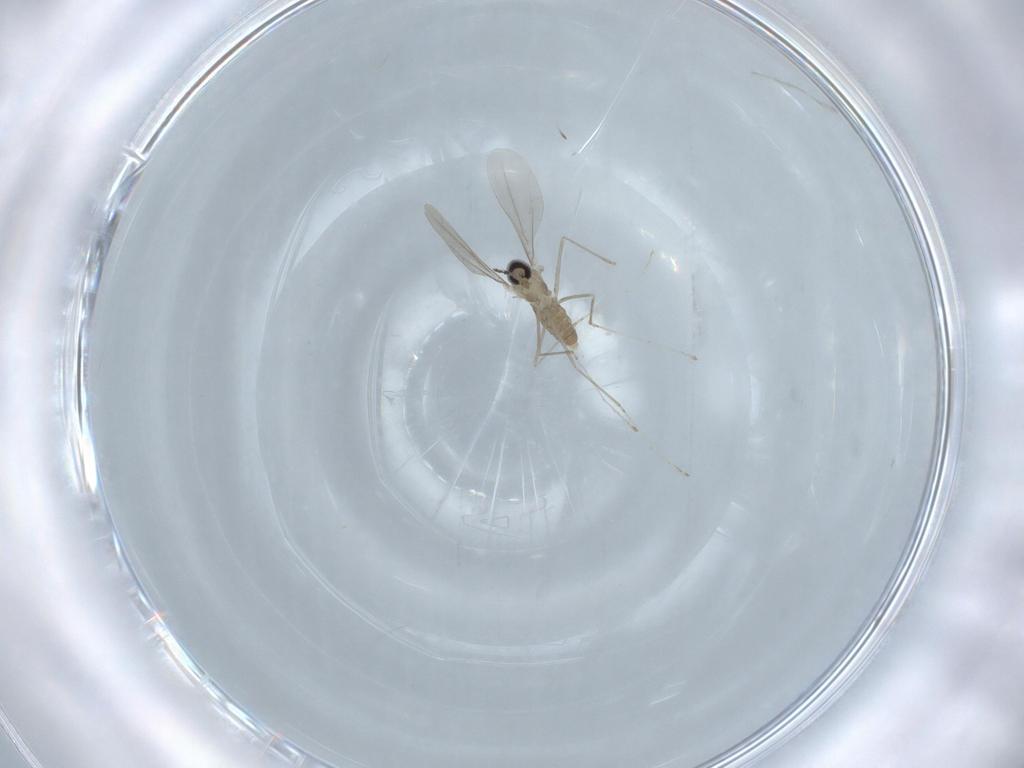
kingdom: Animalia
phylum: Arthropoda
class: Insecta
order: Diptera
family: Cecidomyiidae
